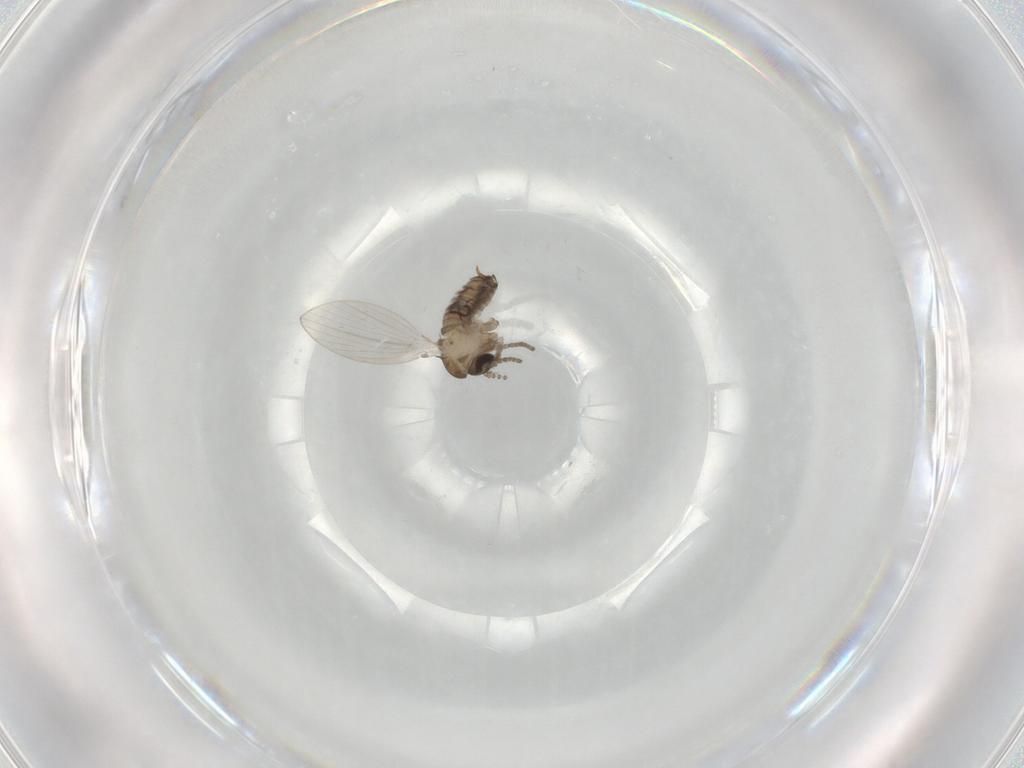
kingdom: Animalia
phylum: Arthropoda
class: Insecta
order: Diptera
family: Psychodidae
